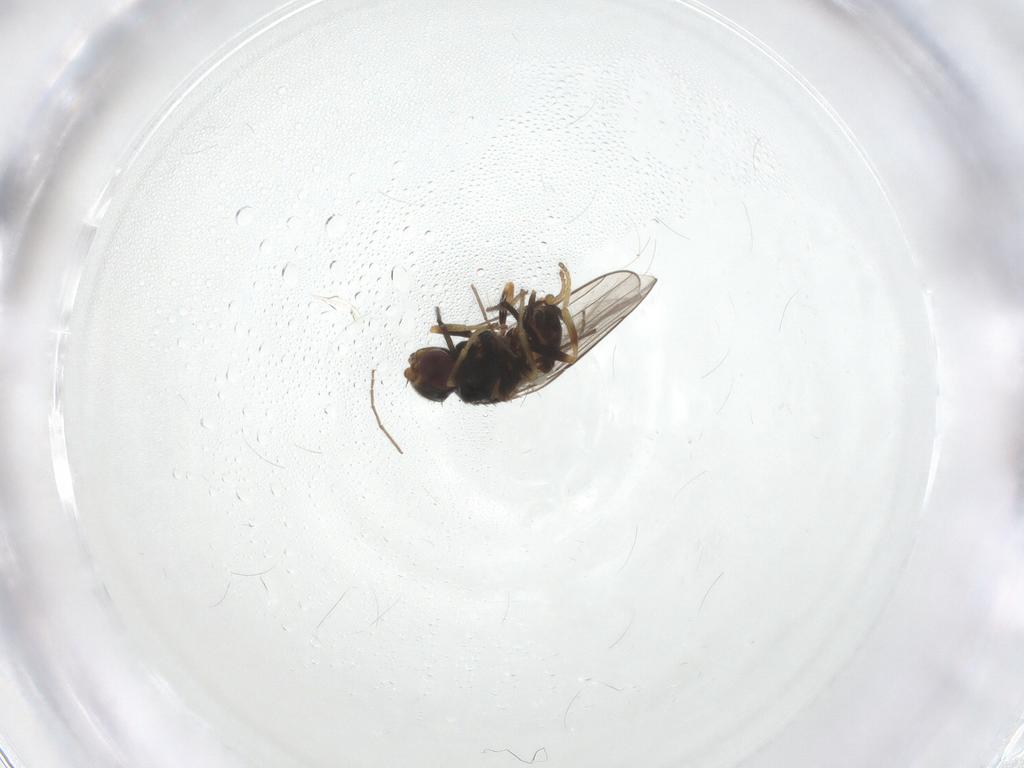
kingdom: Animalia
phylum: Arthropoda
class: Insecta
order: Diptera
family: Chloropidae
